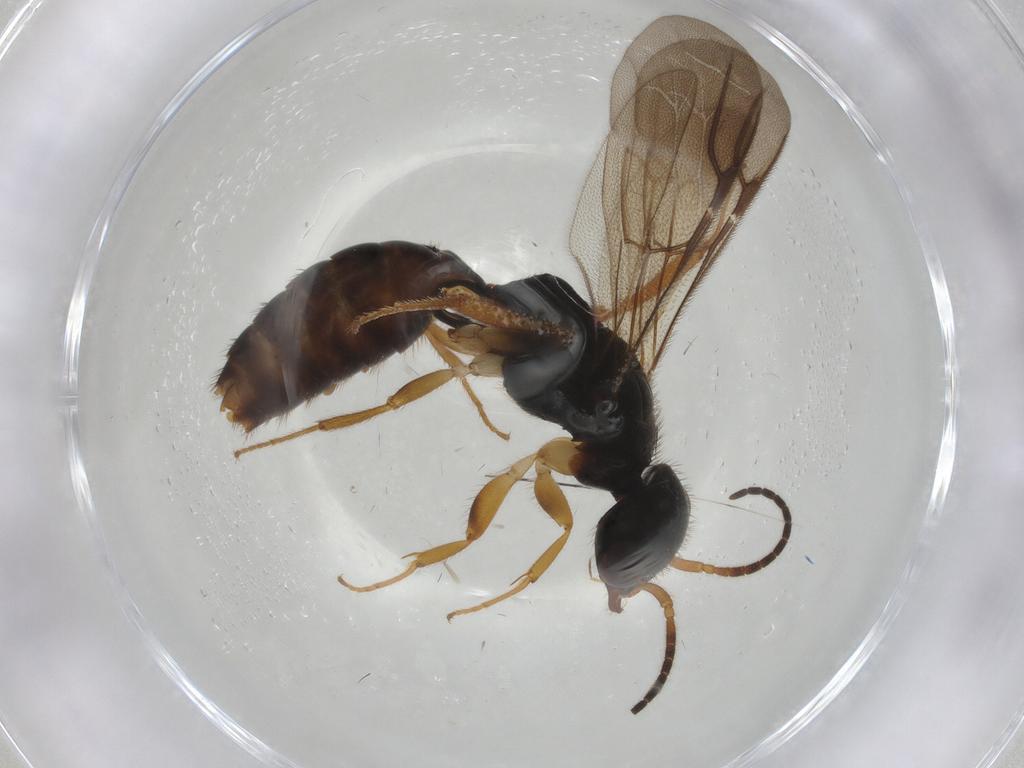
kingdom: Animalia
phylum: Arthropoda
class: Insecta
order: Hymenoptera
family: Bethylidae
